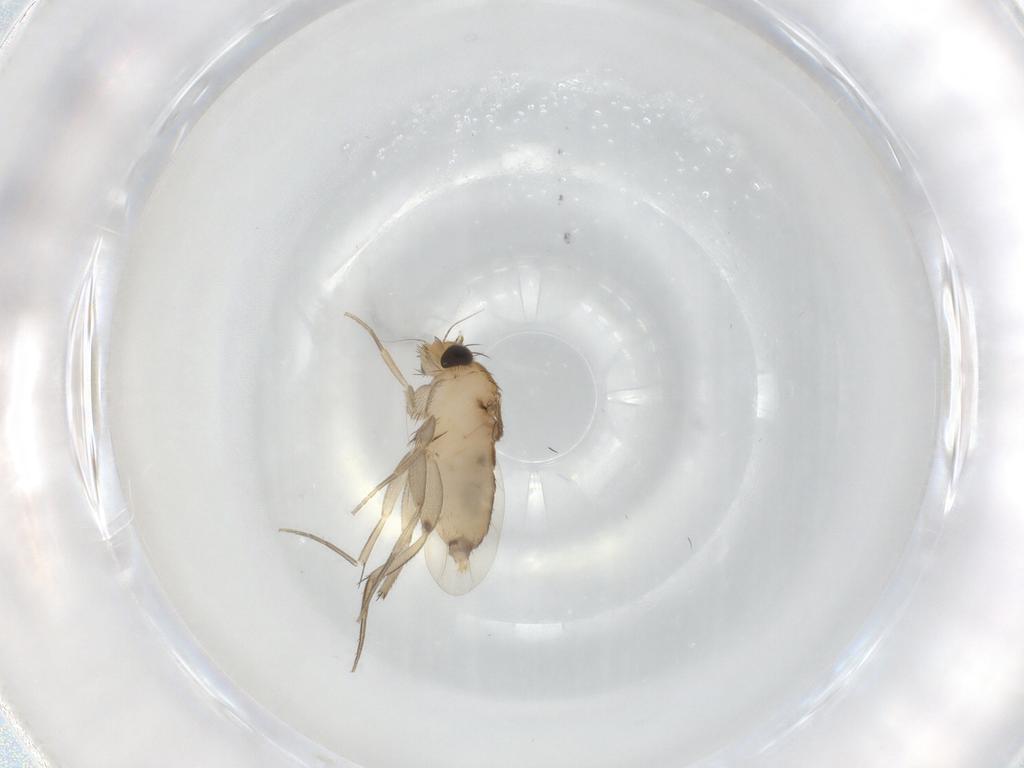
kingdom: Animalia
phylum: Arthropoda
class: Insecta
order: Diptera
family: Phoridae
